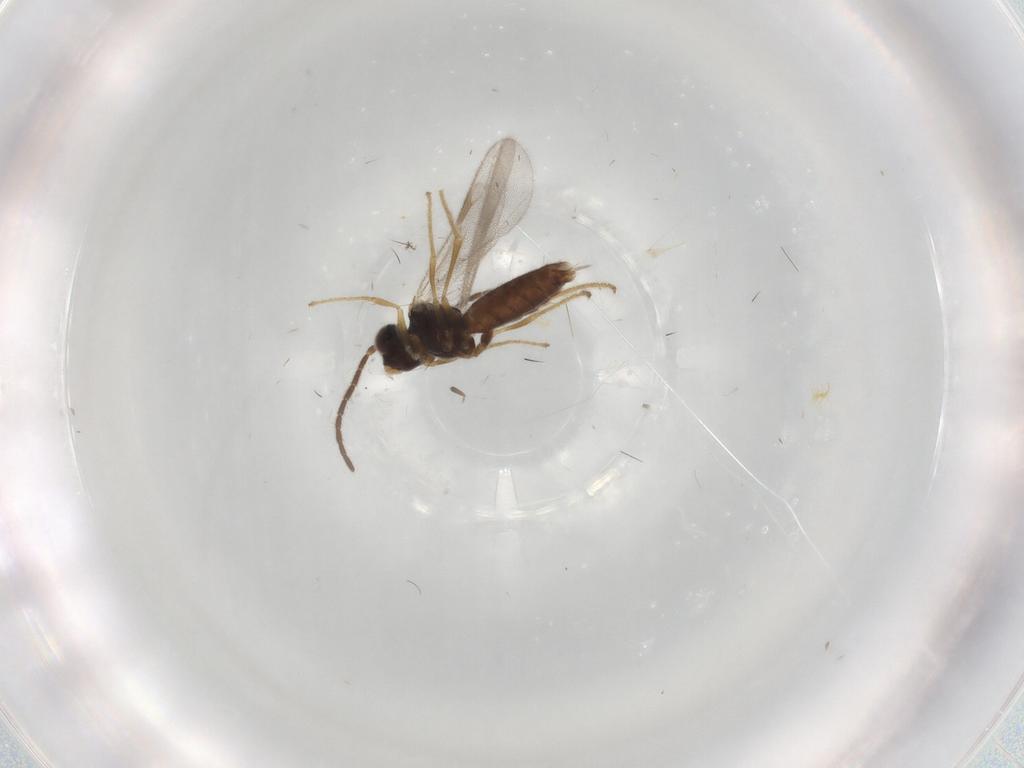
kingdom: Animalia
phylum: Arthropoda
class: Insecta
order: Hymenoptera
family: Dryinidae
